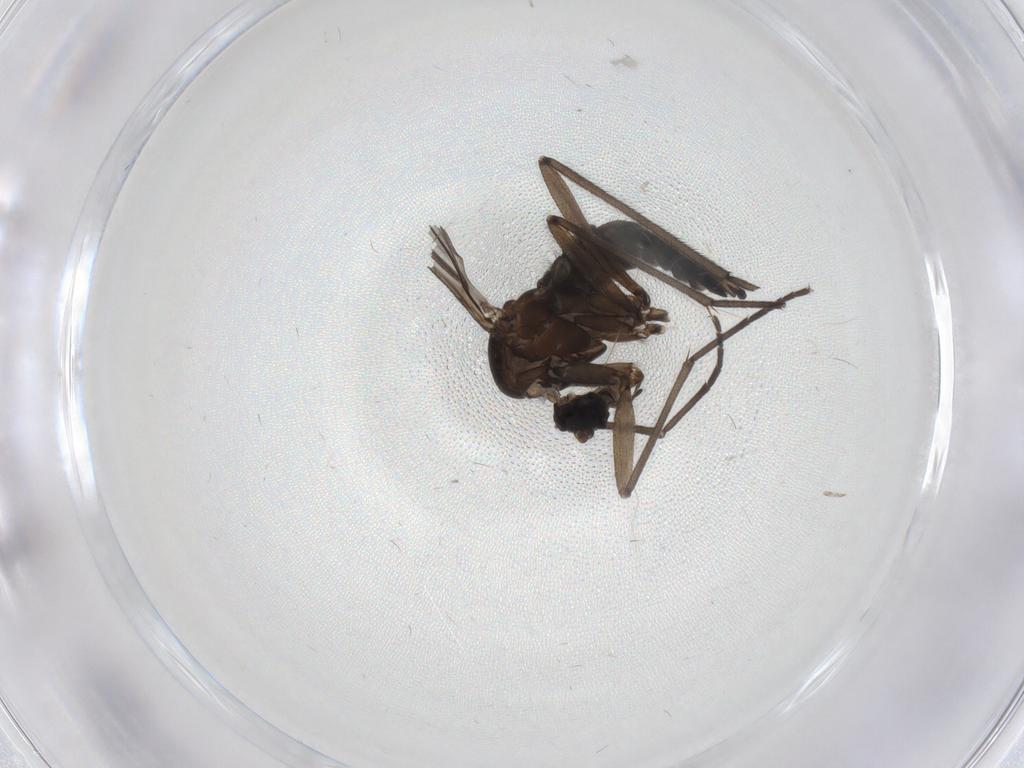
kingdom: Animalia
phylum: Arthropoda
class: Insecta
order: Diptera
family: Sciaridae
